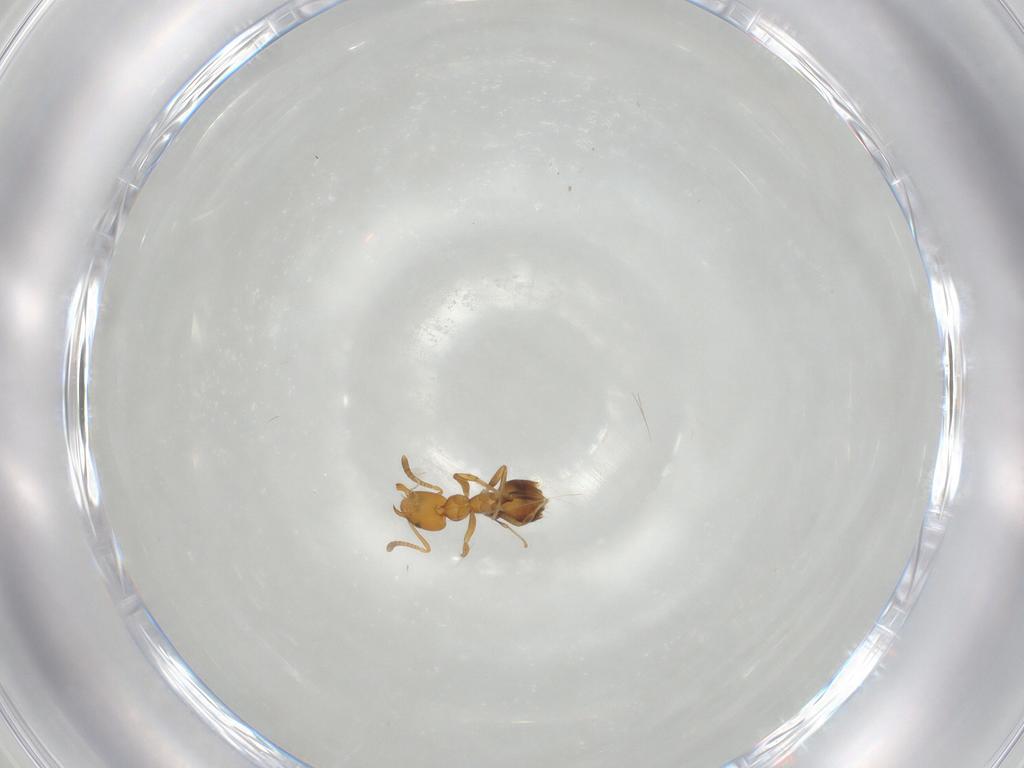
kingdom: Animalia
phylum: Arthropoda
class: Insecta
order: Hymenoptera
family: Formicidae
